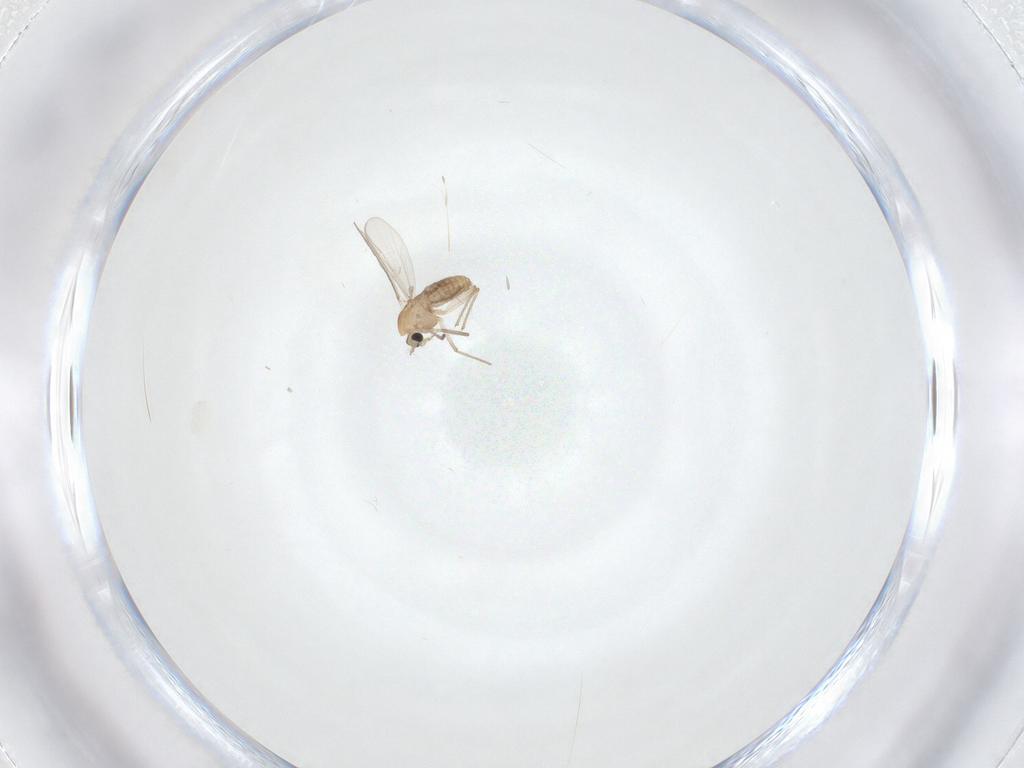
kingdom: Animalia
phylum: Arthropoda
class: Insecta
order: Diptera
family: Chironomidae
